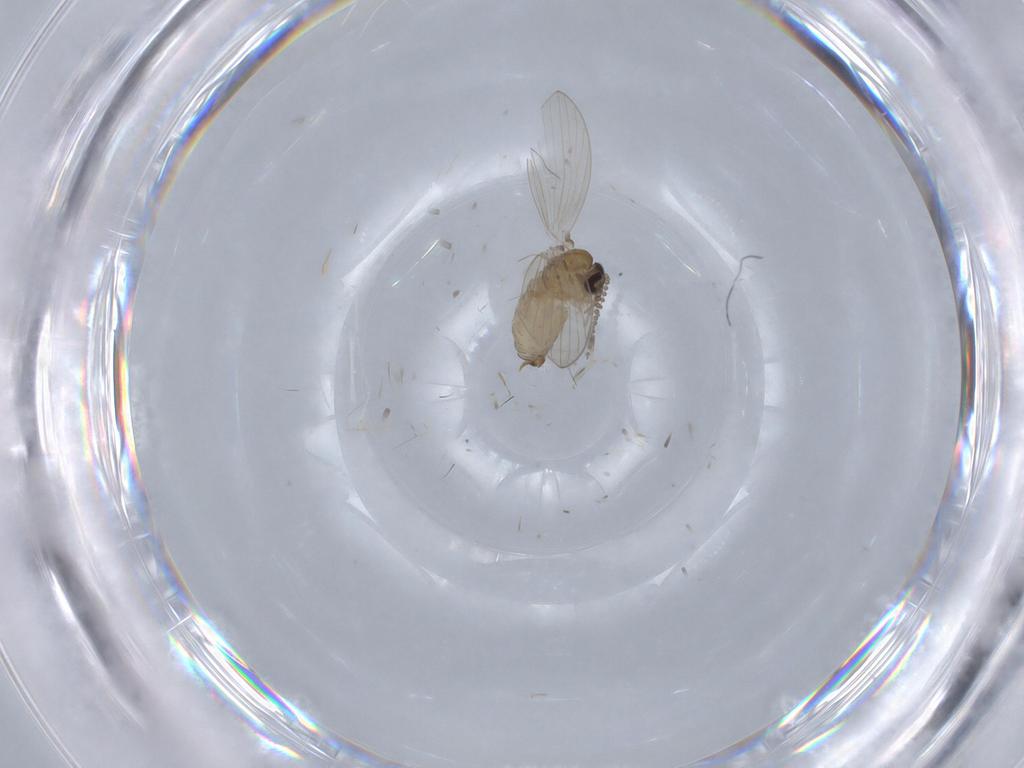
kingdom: Animalia
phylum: Arthropoda
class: Insecta
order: Diptera
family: Psychodidae
